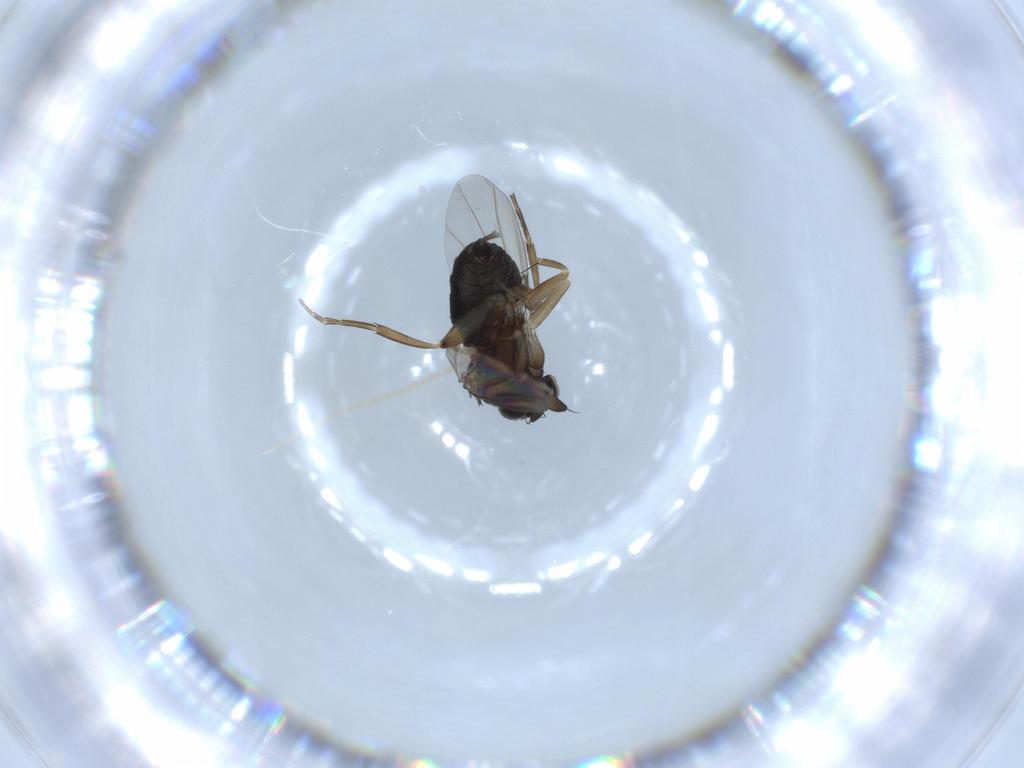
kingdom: Animalia
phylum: Arthropoda
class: Insecta
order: Diptera
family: Phoridae
